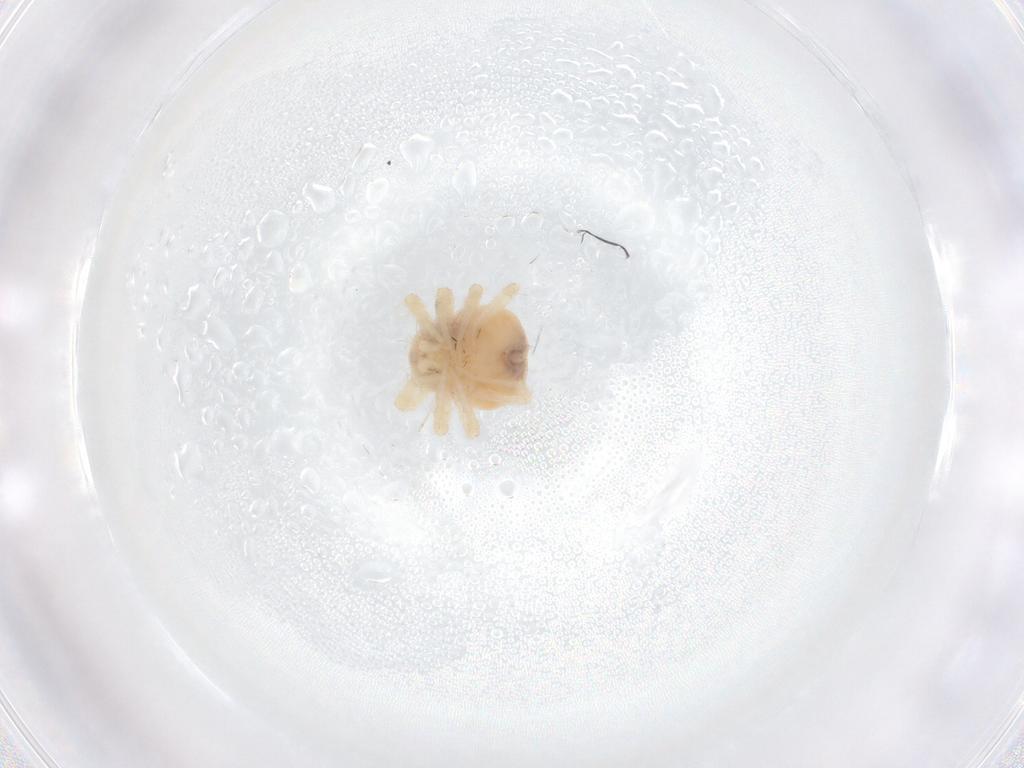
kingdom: Animalia
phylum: Arthropoda
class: Arachnida
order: Trombidiformes
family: Anystidae
